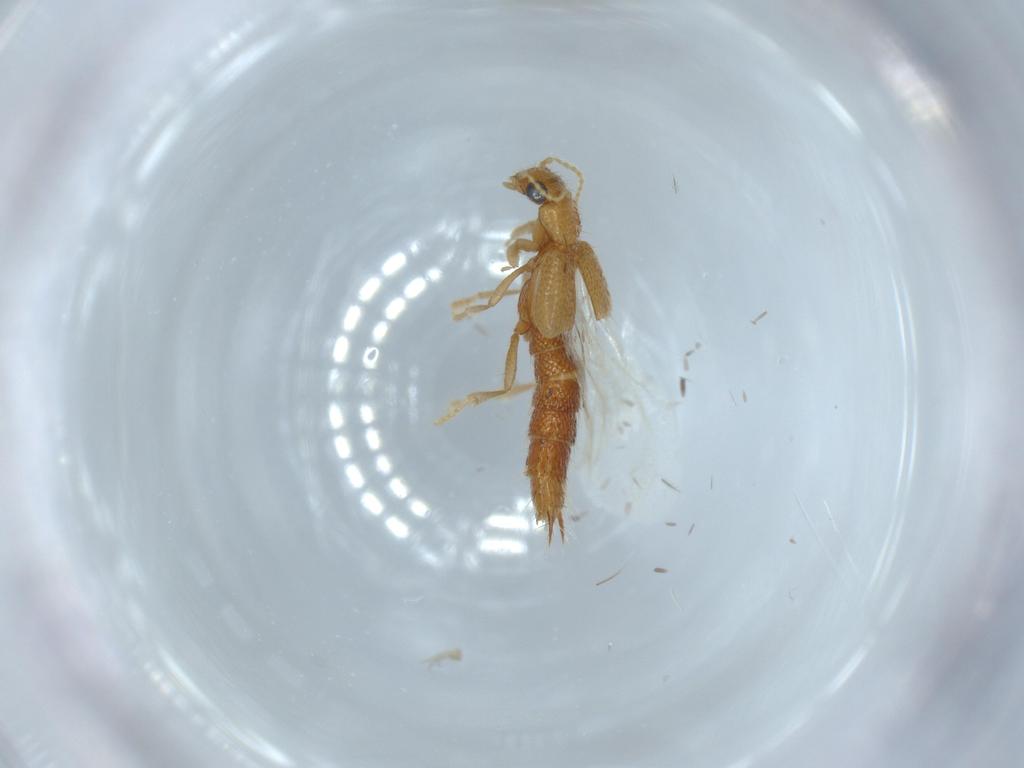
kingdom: Animalia
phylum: Arthropoda
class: Insecta
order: Coleoptera
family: Staphylinidae
